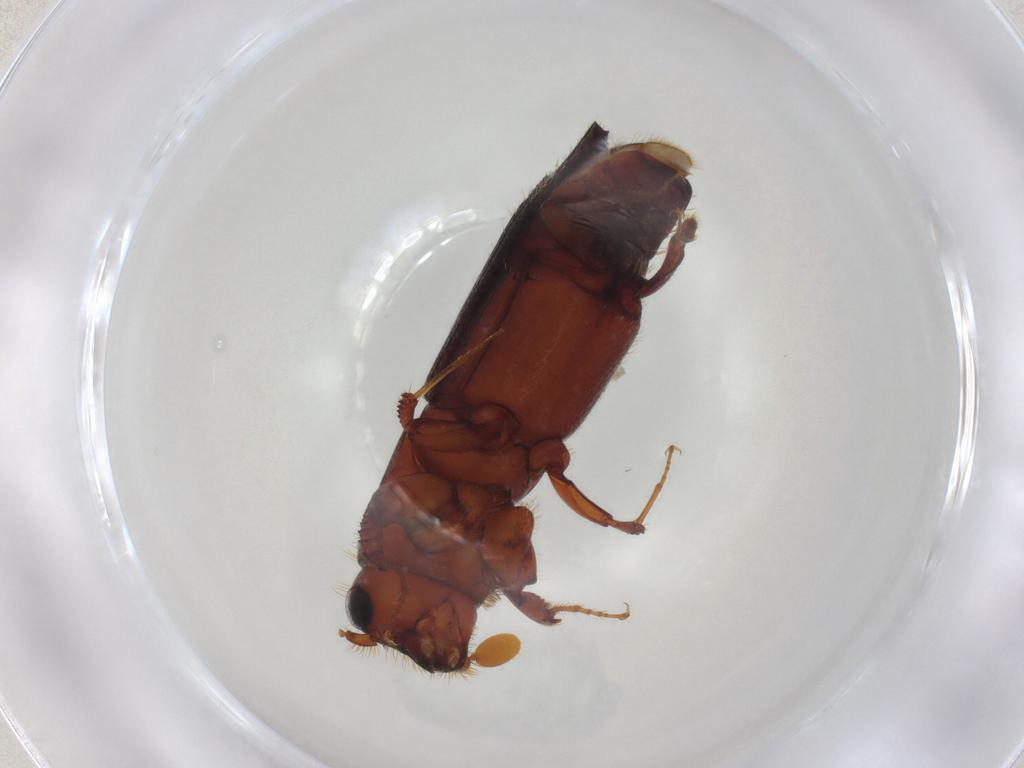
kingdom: Animalia
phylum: Arthropoda
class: Insecta
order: Coleoptera
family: Curculionidae
